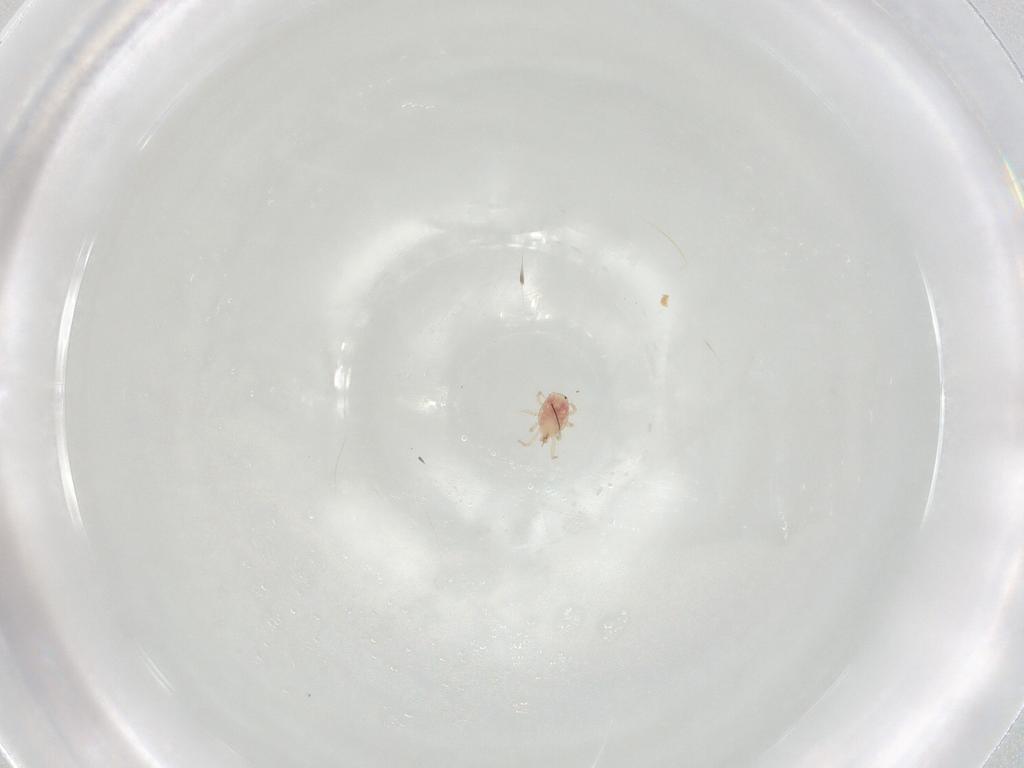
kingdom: Animalia
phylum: Arthropoda
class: Arachnida
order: Mesostigmata
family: Phytoseiidae
